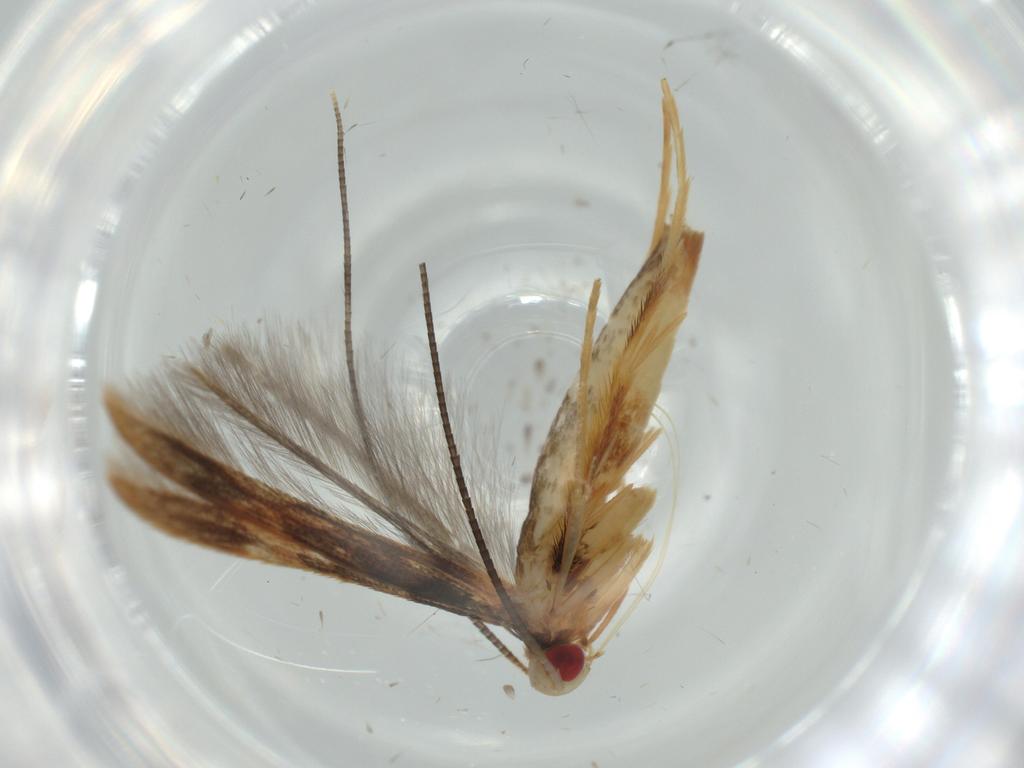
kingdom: Animalia
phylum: Arthropoda
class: Insecta
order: Lepidoptera
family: Gracillariidae
